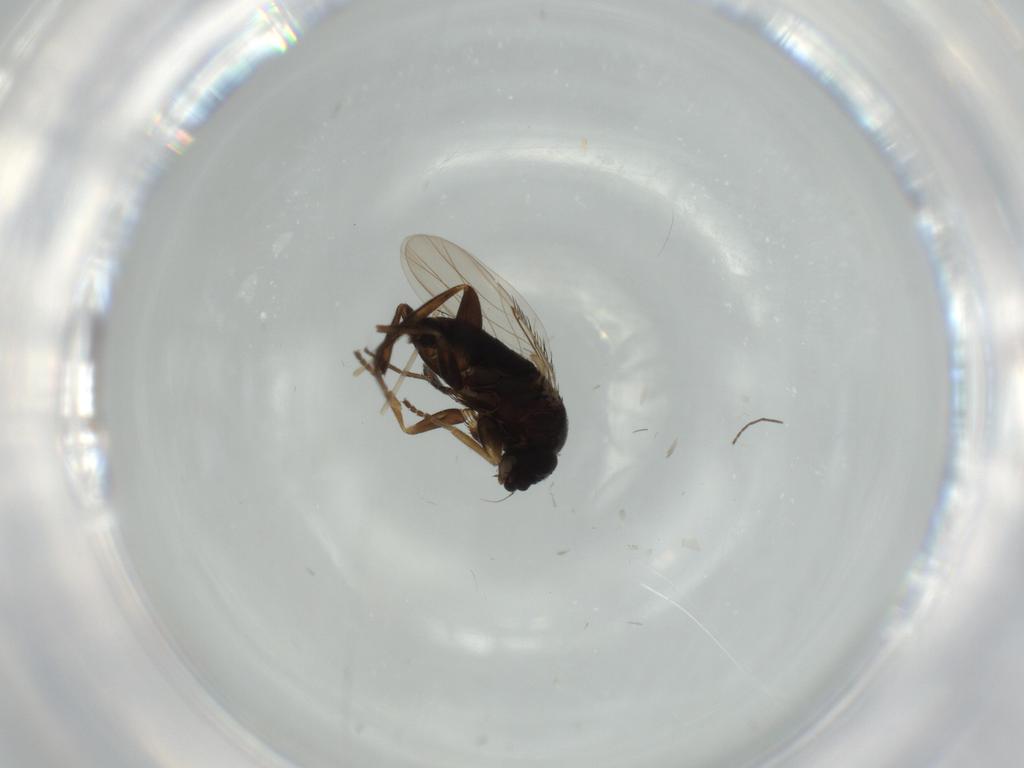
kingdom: Animalia
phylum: Arthropoda
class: Insecta
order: Diptera
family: Phoridae
